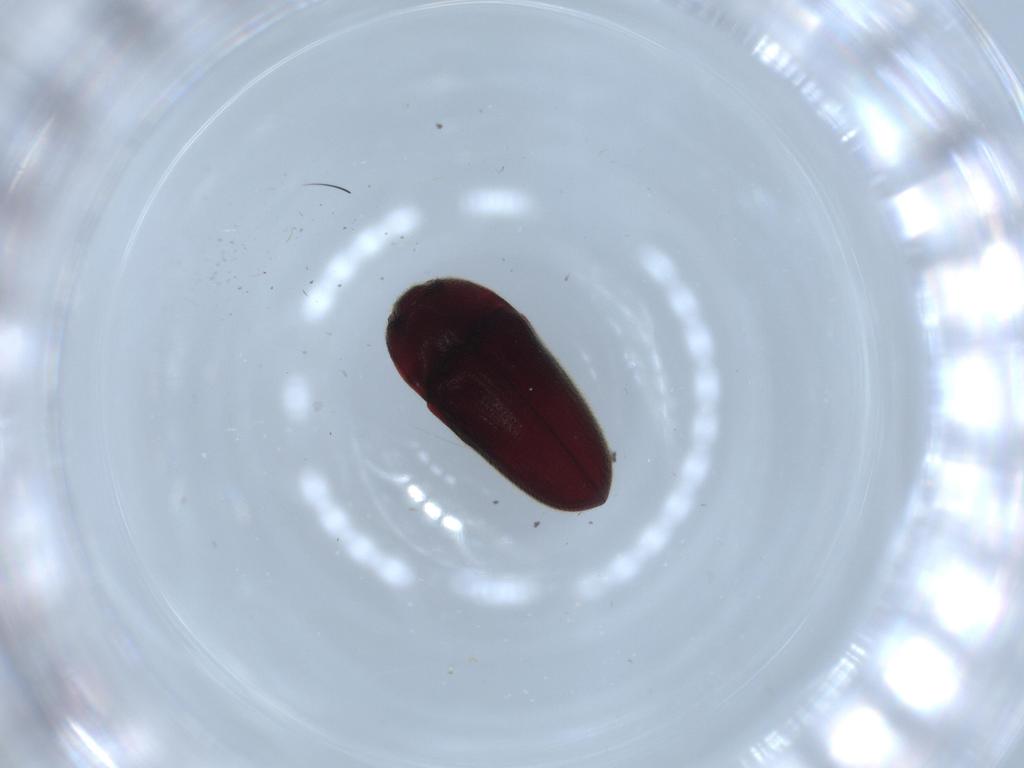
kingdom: Animalia
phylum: Arthropoda
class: Insecta
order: Coleoptera
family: Throscidae
